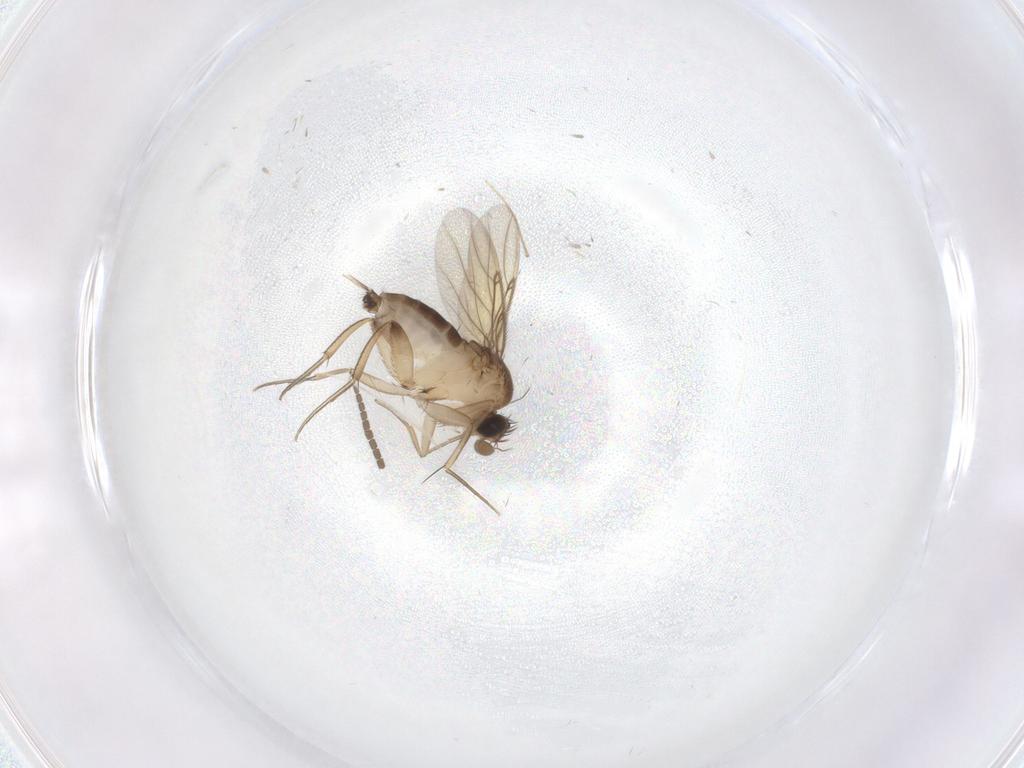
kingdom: Animalia
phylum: Arthropoda
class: Insecta
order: Diptera
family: Mycetophilidae
